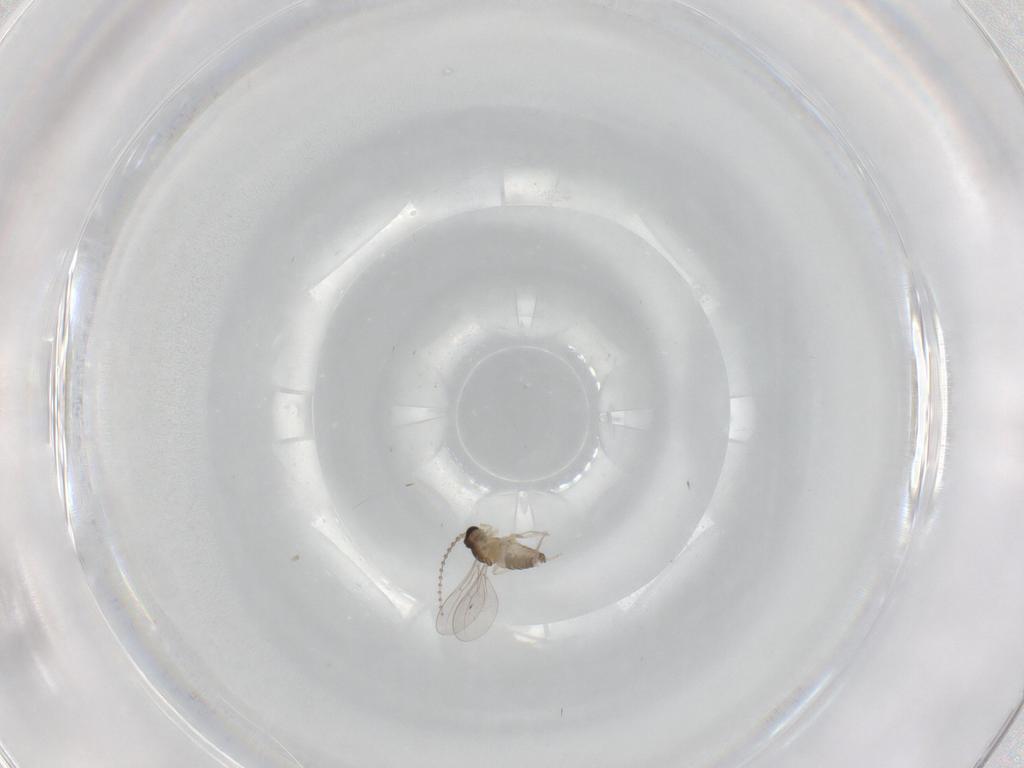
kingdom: Animalia
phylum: Arthropoda
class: Insecta
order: Diptera
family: Cecidomyiidae
